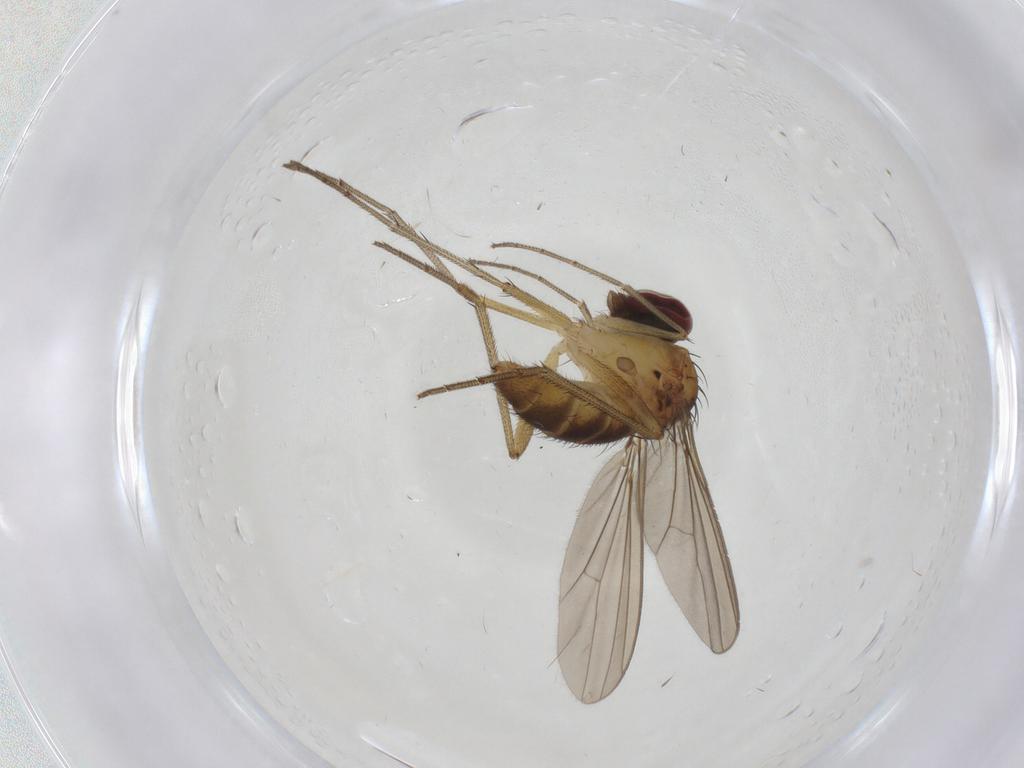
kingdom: Animalia
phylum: Arthropoda
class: Insecta
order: Diptera
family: Dolichopodidae
